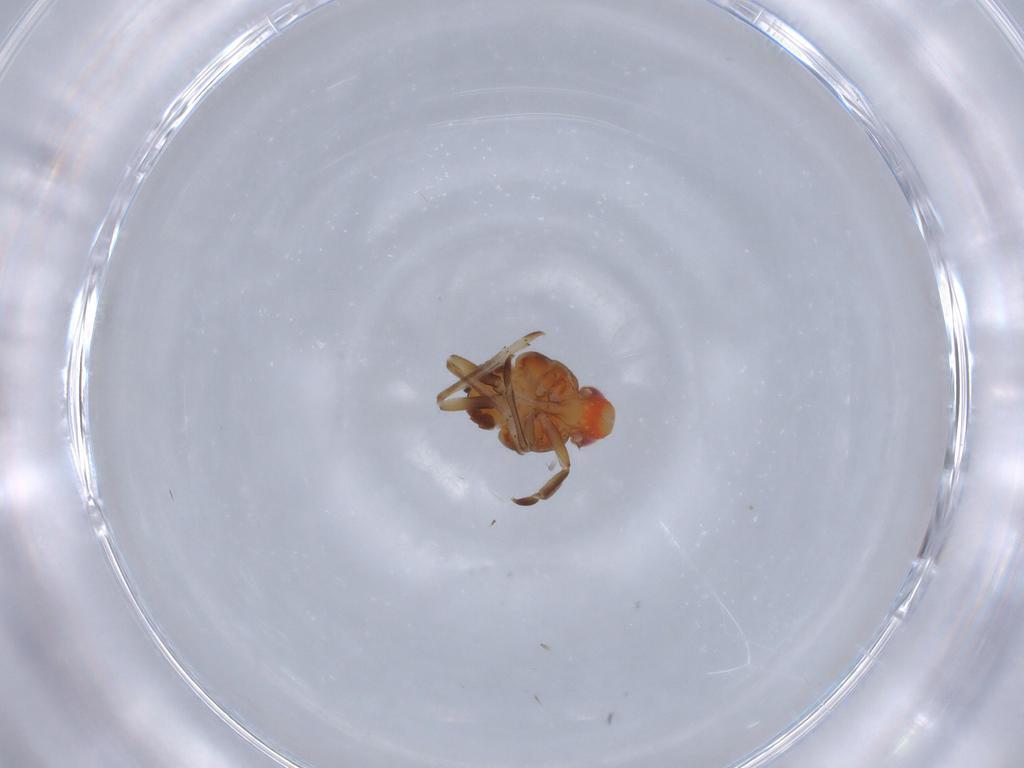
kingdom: Animalia
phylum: Arthropoda
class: Insecta
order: Hemiptera
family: Fulgoroidea_incertae_sedis
